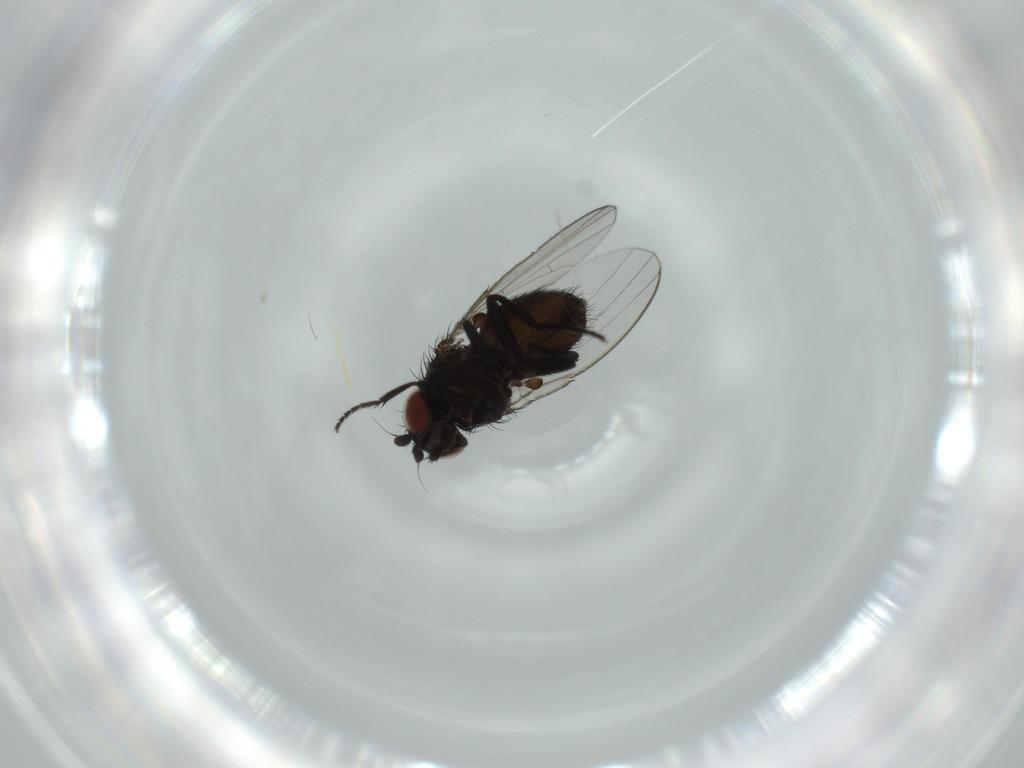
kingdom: Animalia
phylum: Arthropoda
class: Insecta
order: Diptera
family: Milichiidae
